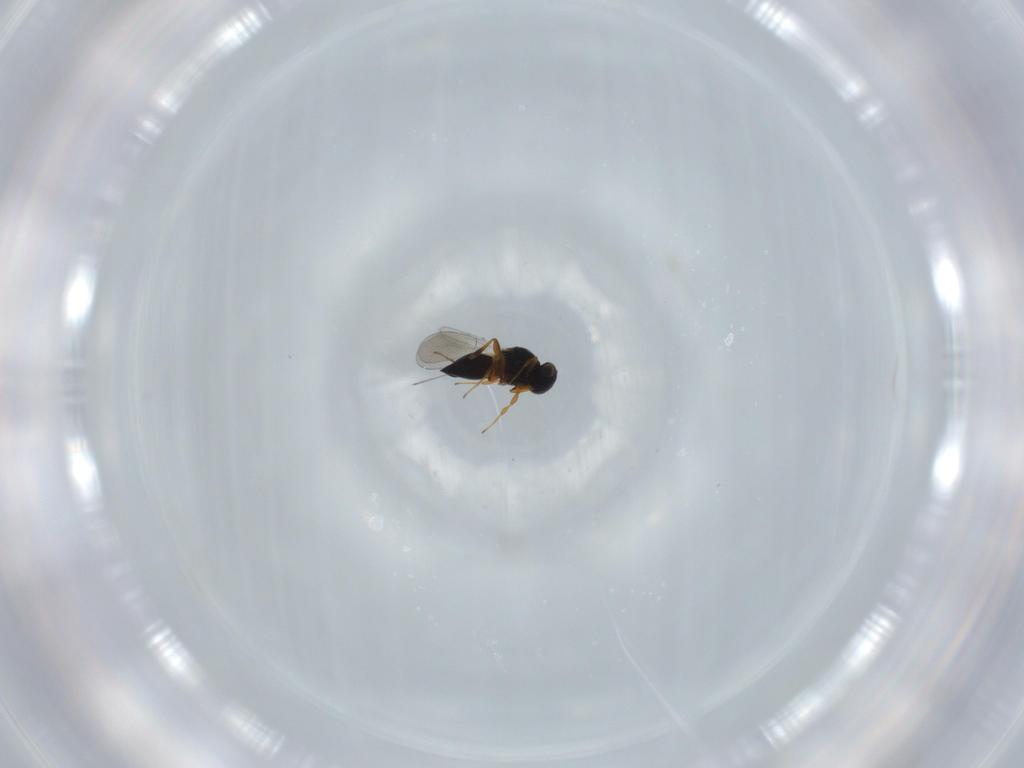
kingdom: Animalia
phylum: Arthropoda
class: Insecta
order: Hymenoptera
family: Platygastridae
